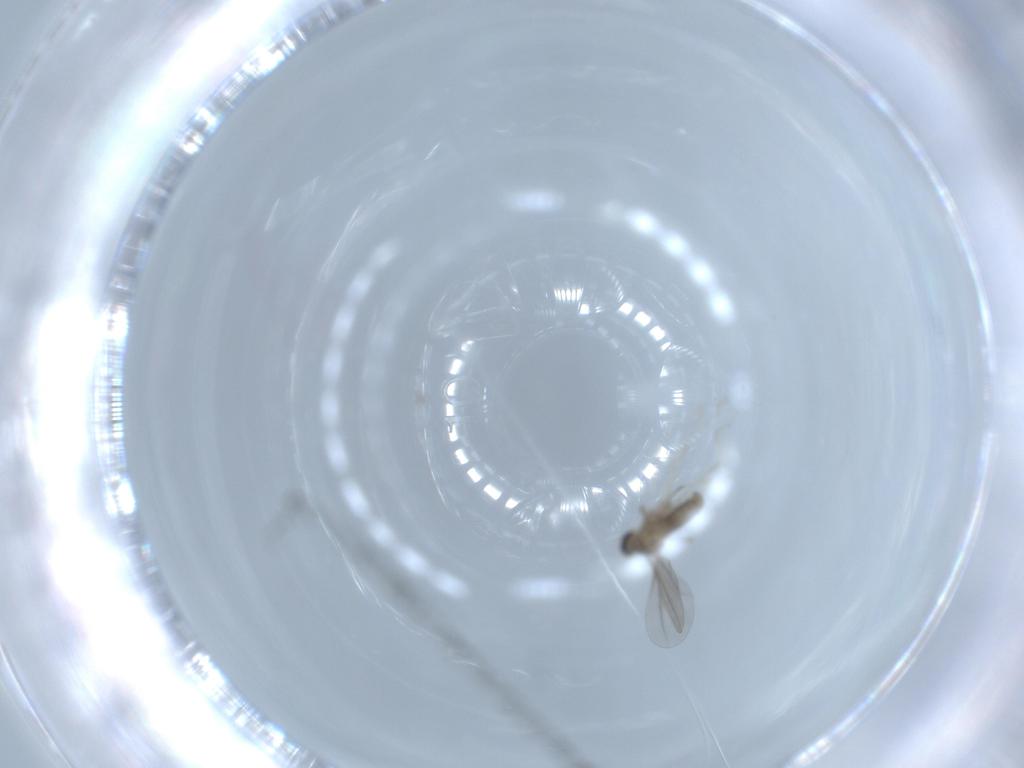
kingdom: Animalia
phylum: Arthropoda
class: Insecta
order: Diptera
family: Cecidomyiidae
